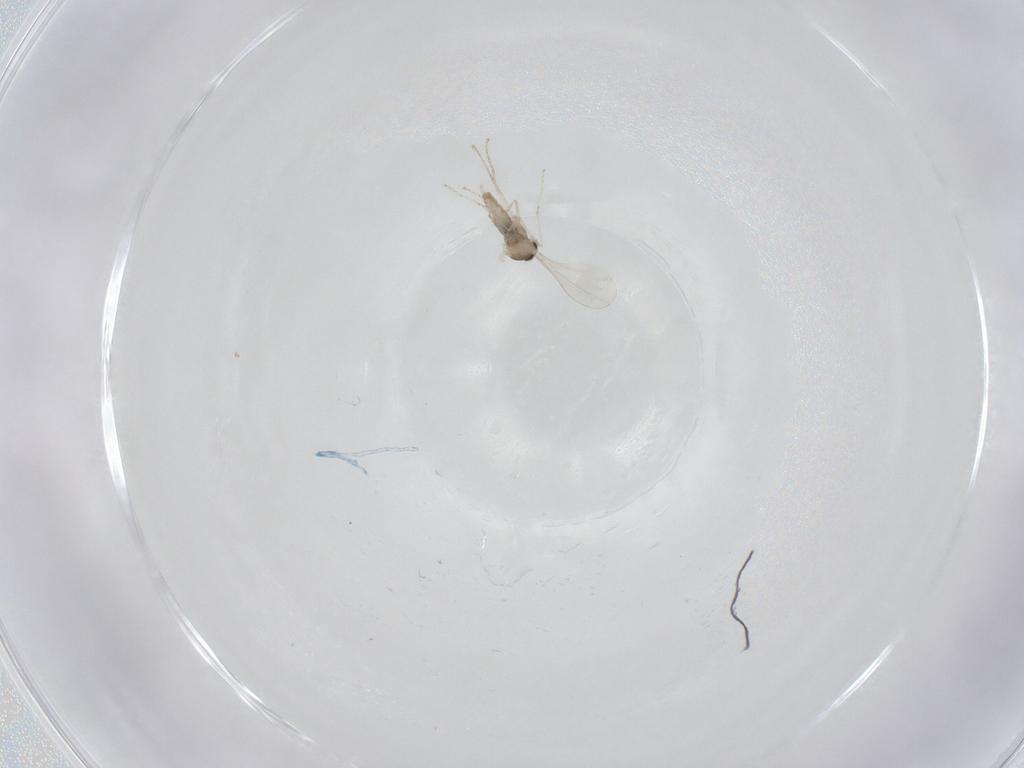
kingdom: Animalia
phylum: Arthropoda
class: Insecta
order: Diptera
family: Cecidomyiidae
